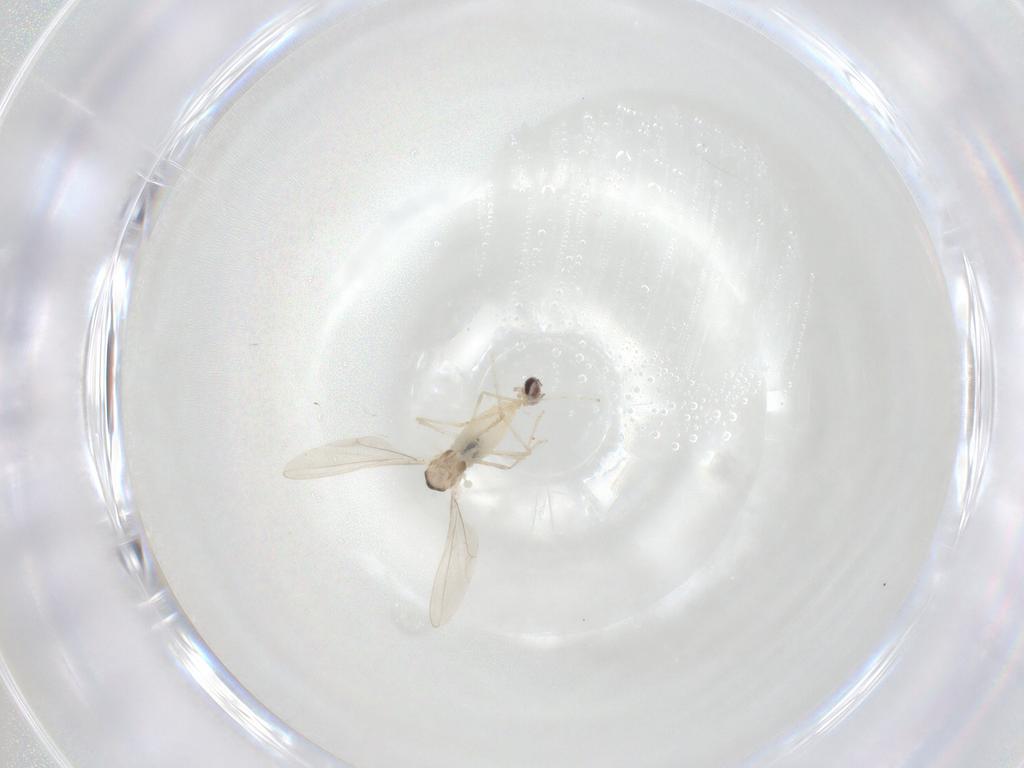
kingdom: Animalia
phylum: Arthropoda
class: Insecta
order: Diptera
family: Cecidomyiidae
